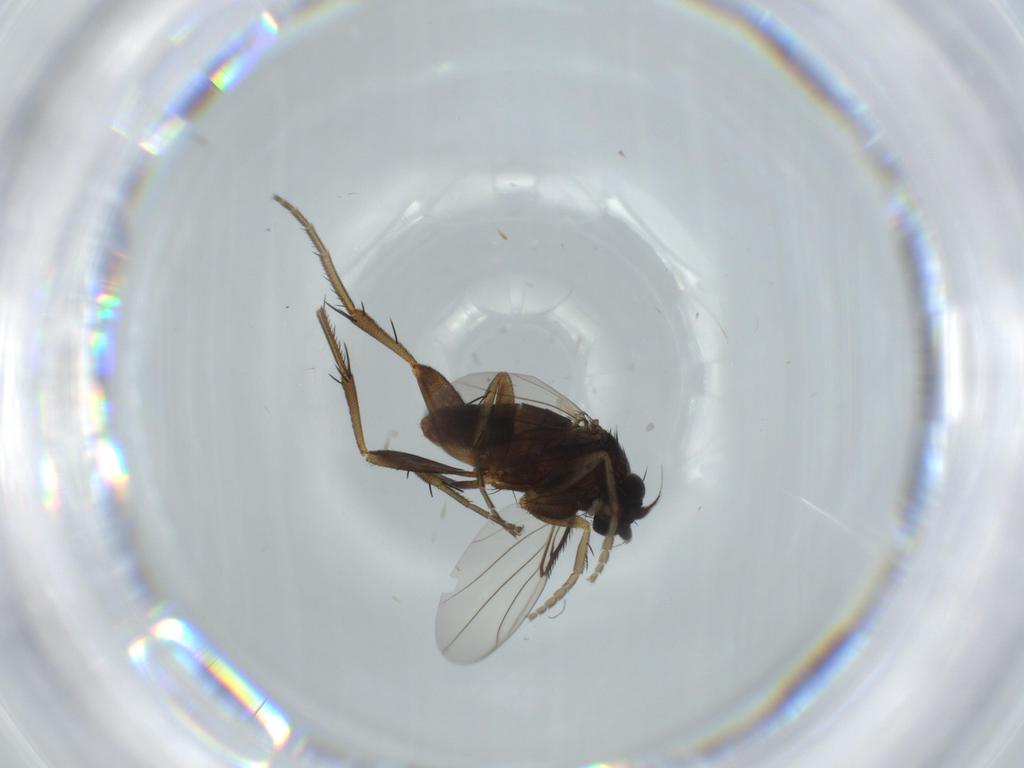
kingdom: Animalia
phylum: Arthropoda
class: Insecta
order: Diptera
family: Phoridae
